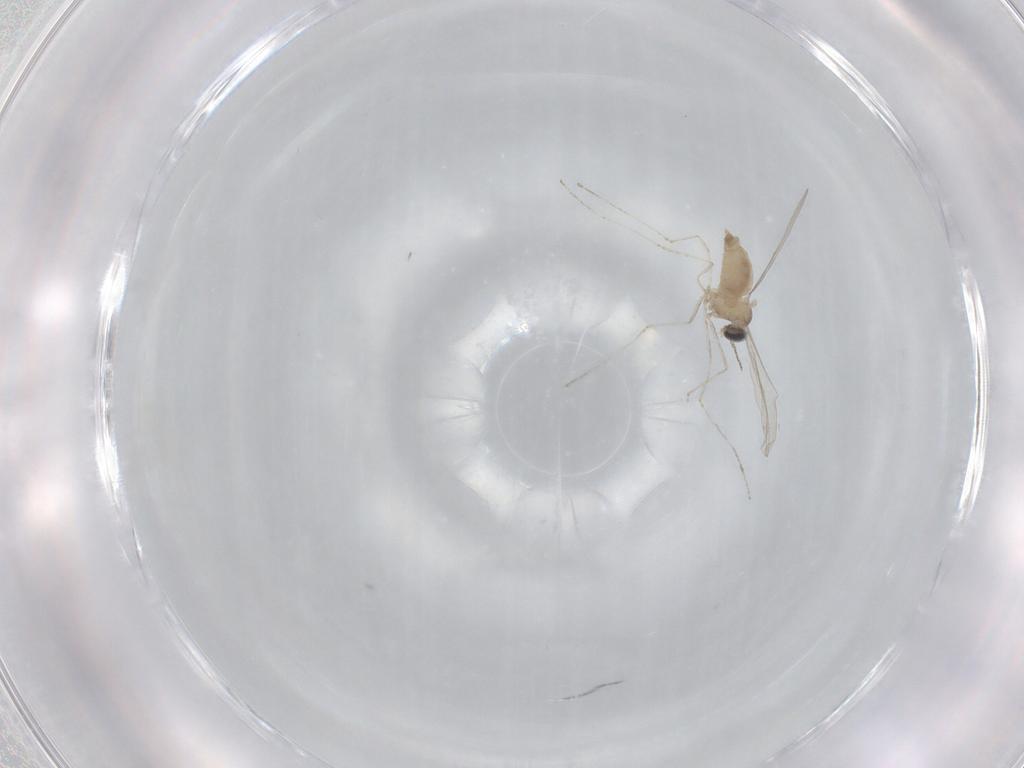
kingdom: Animalia
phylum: Arthropoda
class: Insecta
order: Diptera
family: Cecidomyiidae
